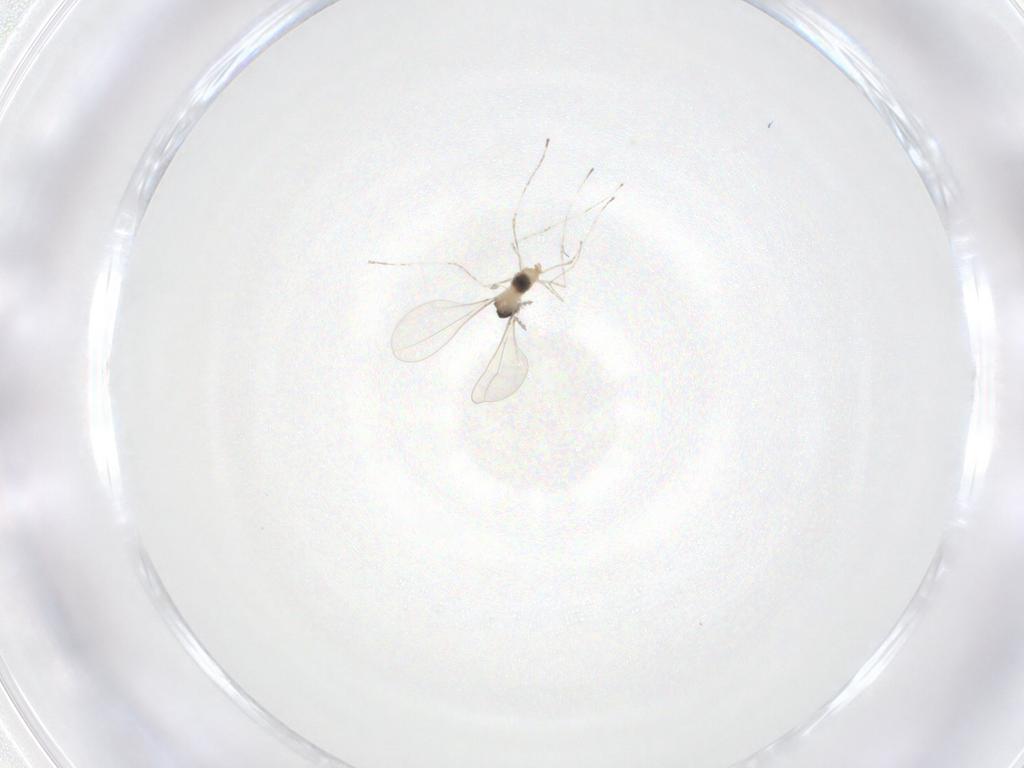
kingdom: Animalia
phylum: Arthropoda
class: Insecta
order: Diptera
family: Cecidomyiidae
